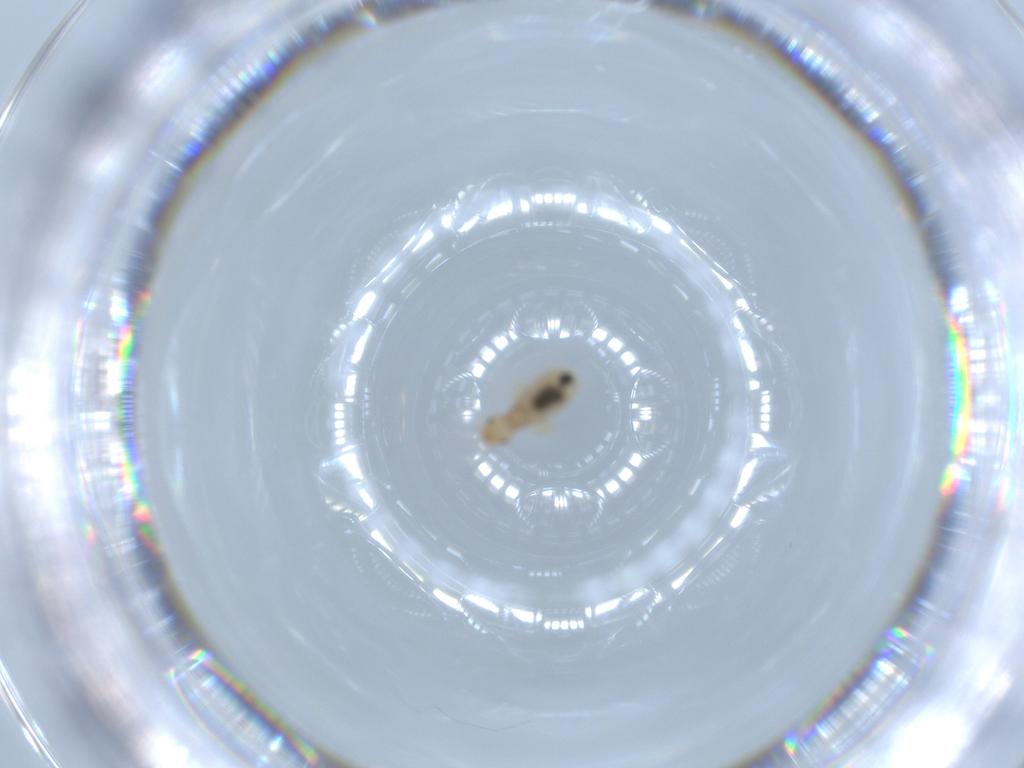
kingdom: Animalia
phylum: Arthropoda
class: Insecta
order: Psocodea
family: Liposcelididae
